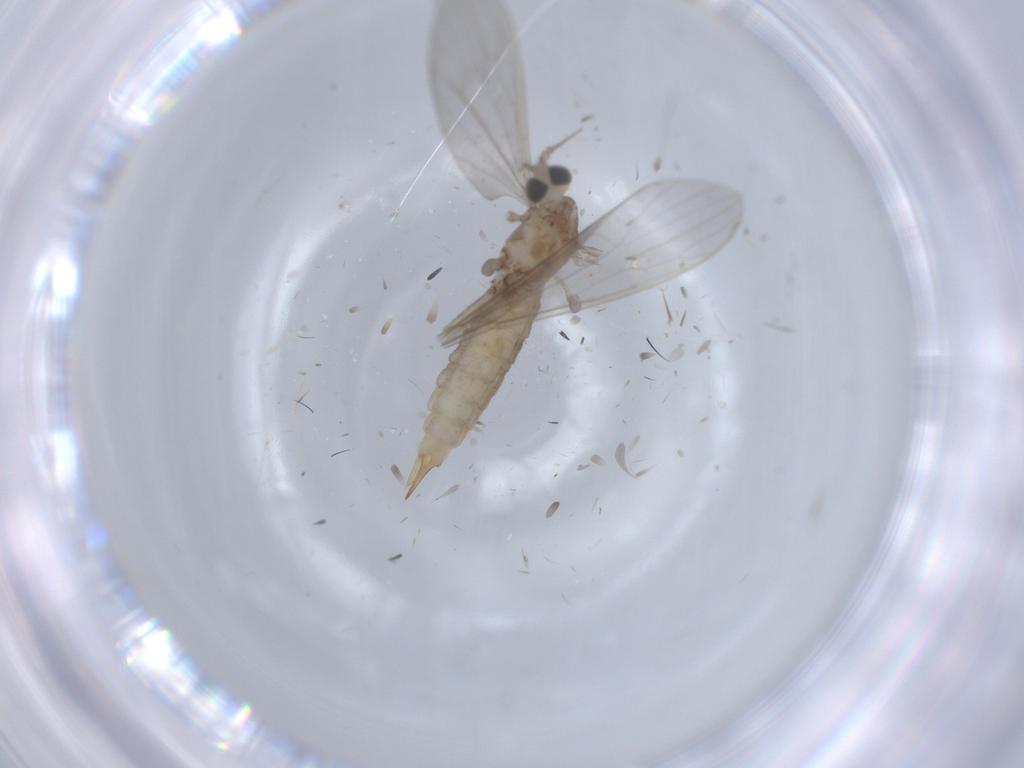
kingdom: Animalia
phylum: Arthropoda
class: Insecta
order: Diptera
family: Limoniidae
